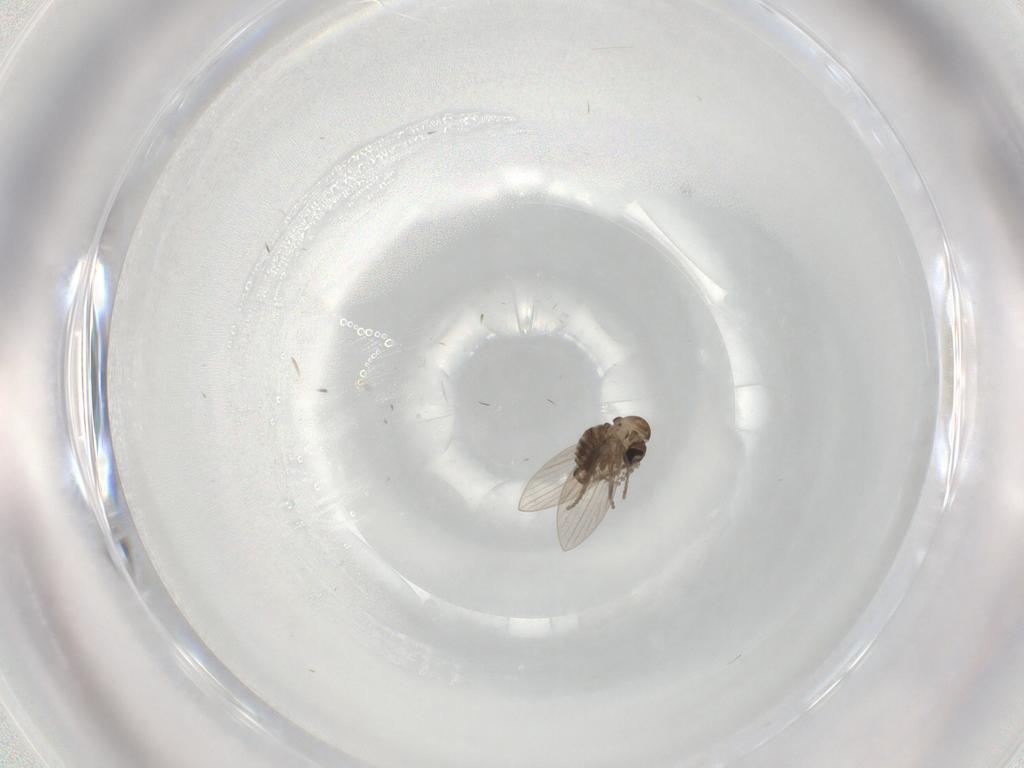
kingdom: Animalia
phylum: Arthropoda
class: Insecta
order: Diptera
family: Psychodidae
